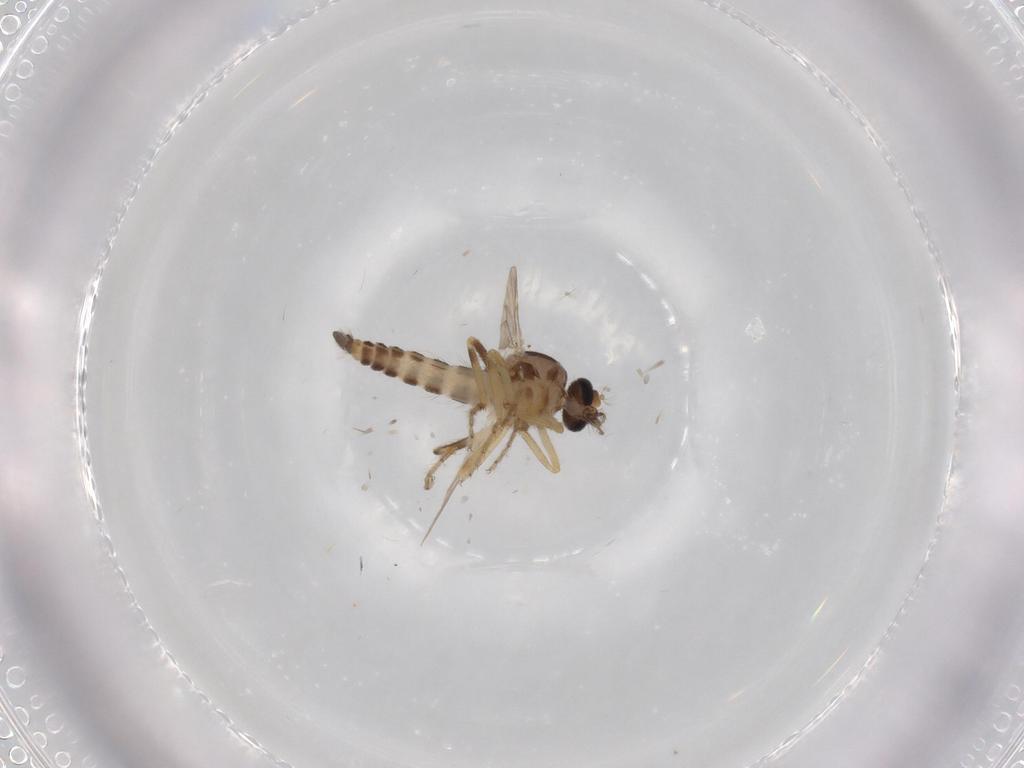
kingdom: Animalia
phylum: Arthropoda
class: Insecta
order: Diptera
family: Ceratopogonidae
